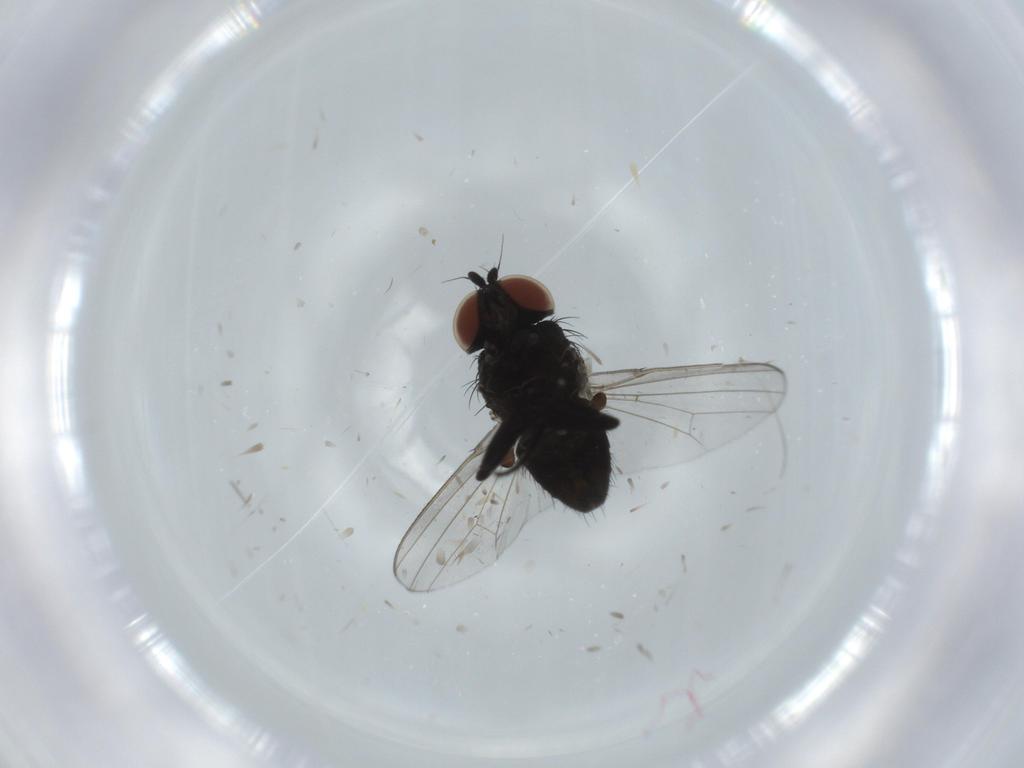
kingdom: Animalia
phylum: Arthropoda
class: Insecta
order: Diptera
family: Milichiidae
